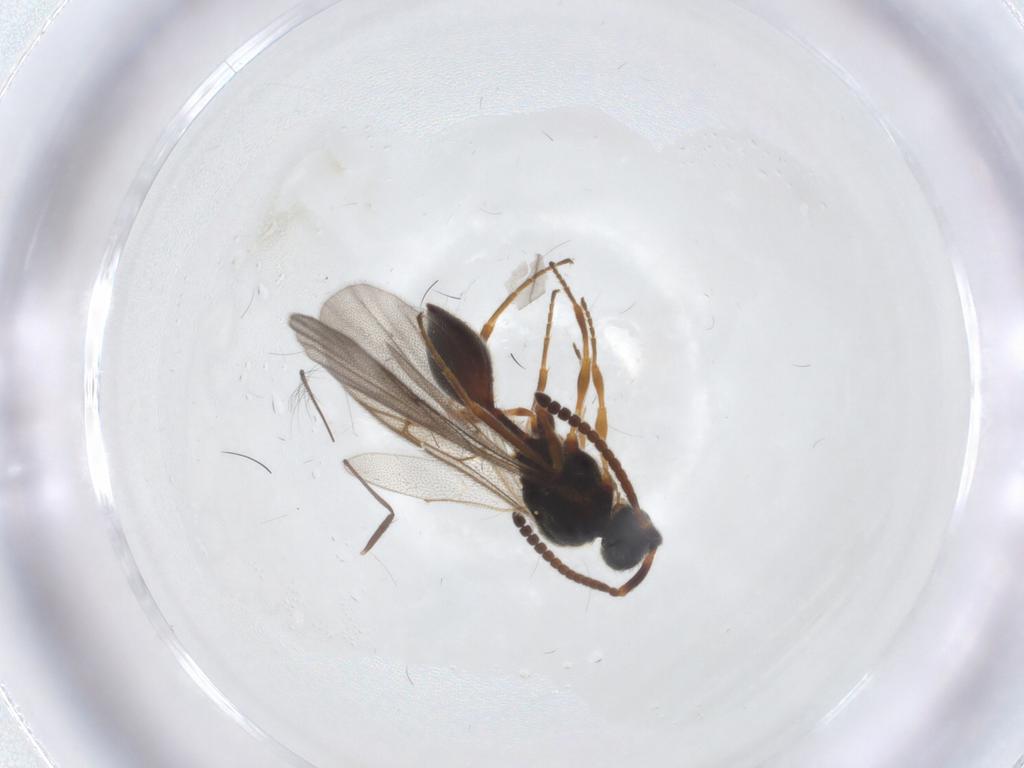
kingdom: Animalia
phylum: Arthropoda
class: Insecta
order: Hymenoptera
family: Diapriidae
